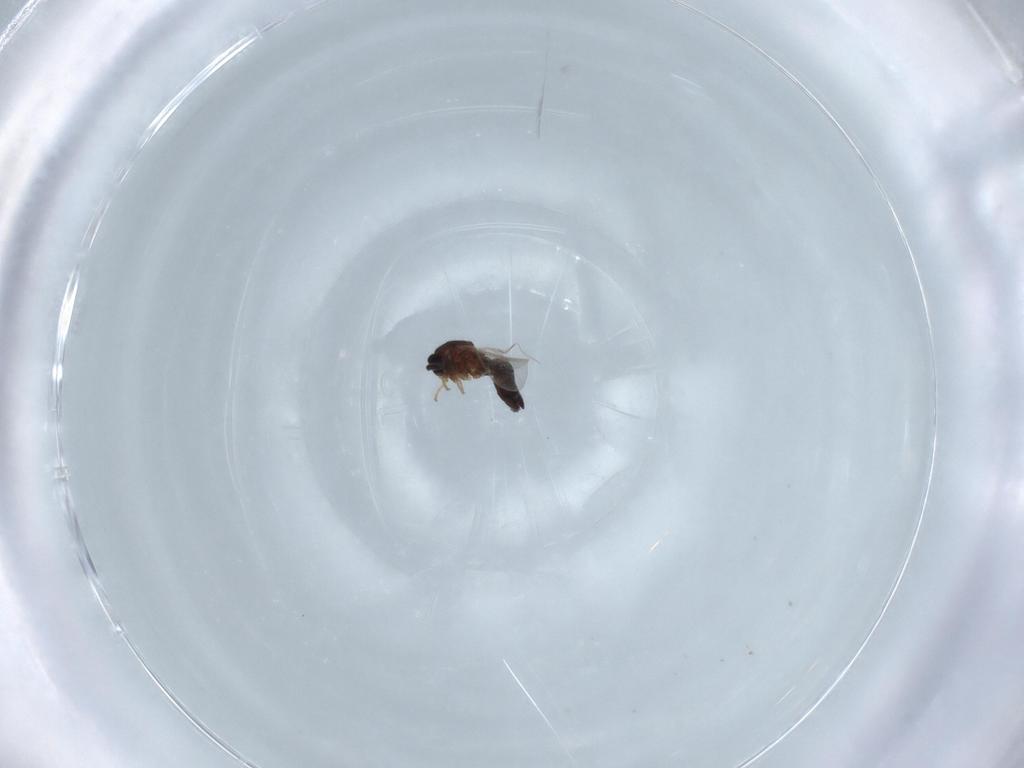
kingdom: Animalia
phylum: Arthropoda
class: Insecta
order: Diptera
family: Scatopsidae
